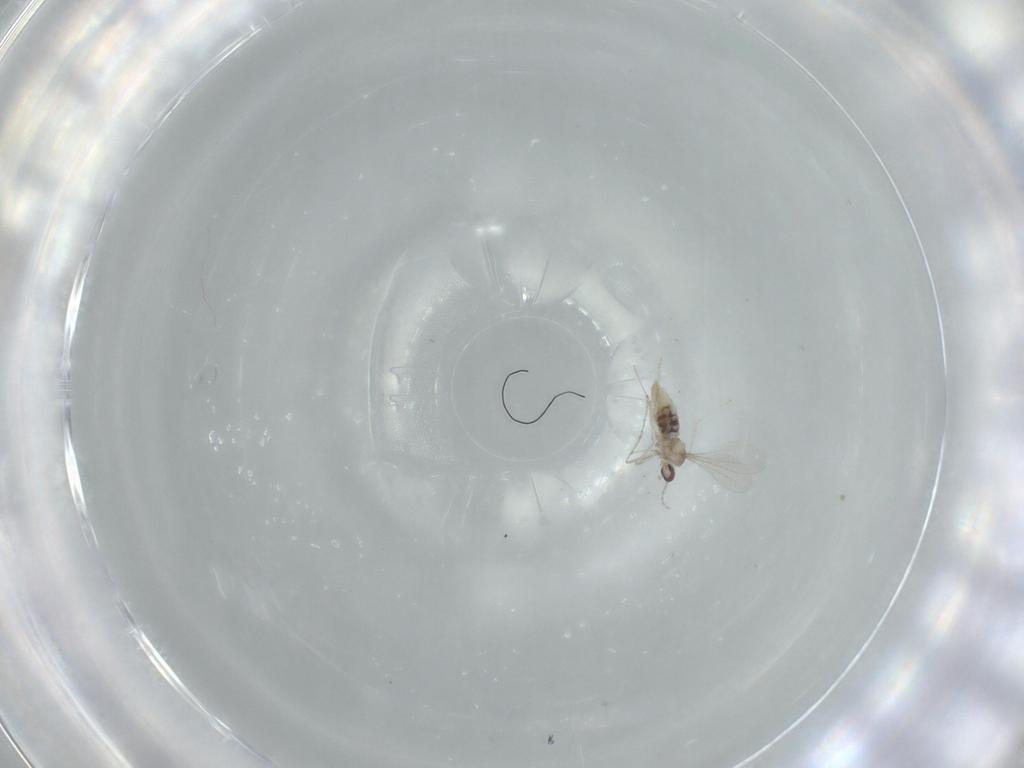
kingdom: Animalia
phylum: Arthropoda
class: Insecta
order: Diptera
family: Cecidomyiidae
